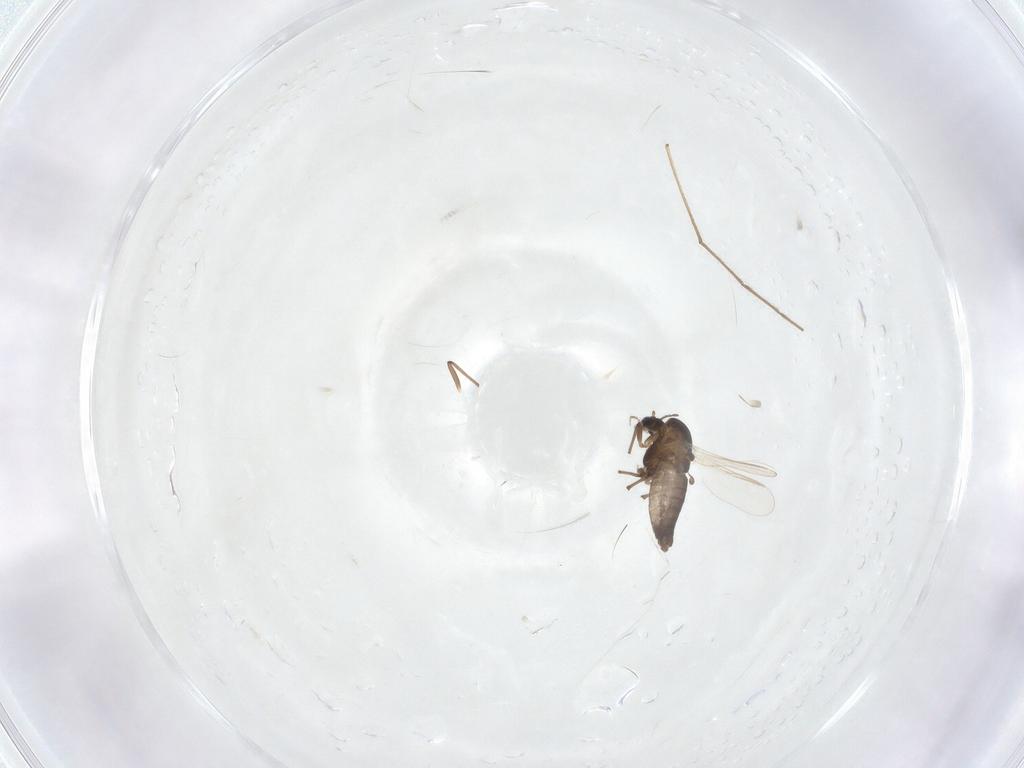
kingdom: Animalia
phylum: Arthropoda
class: Insecta
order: Diptera
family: Chironomidae
